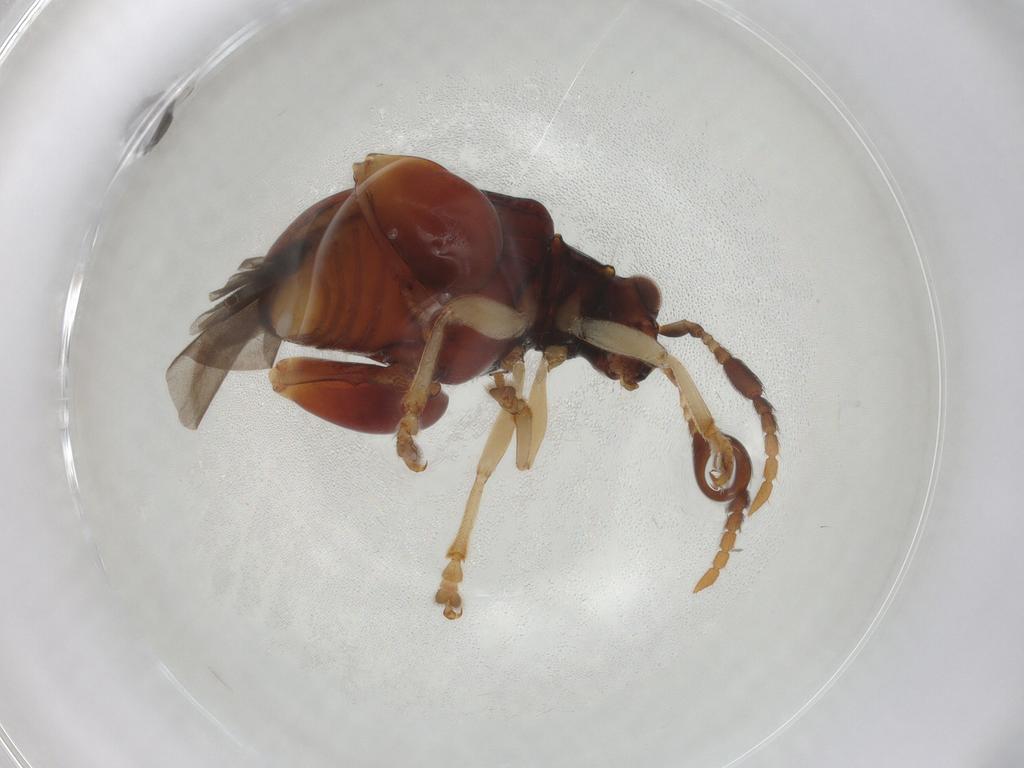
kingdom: Animalia
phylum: Arthropoda
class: Insecta
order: Coleoptera
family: Chrysomelidae
